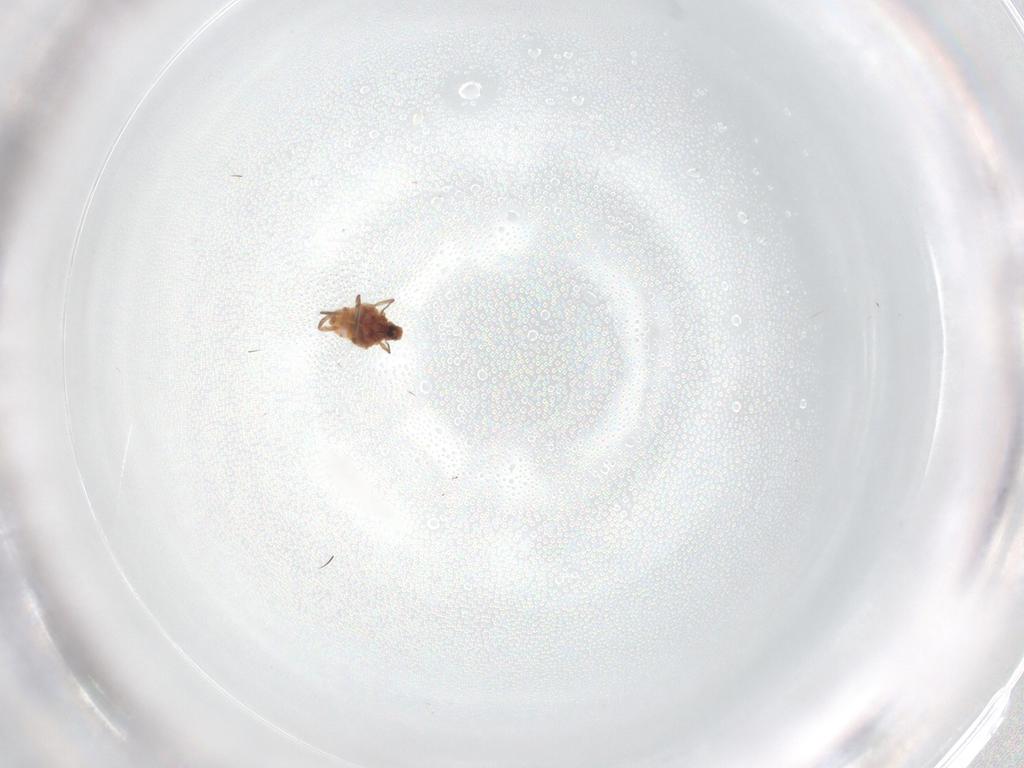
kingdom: Animalia
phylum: Arthropoda
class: Insecta
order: Hemiptera
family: Coccoidea_incertae_sedis
